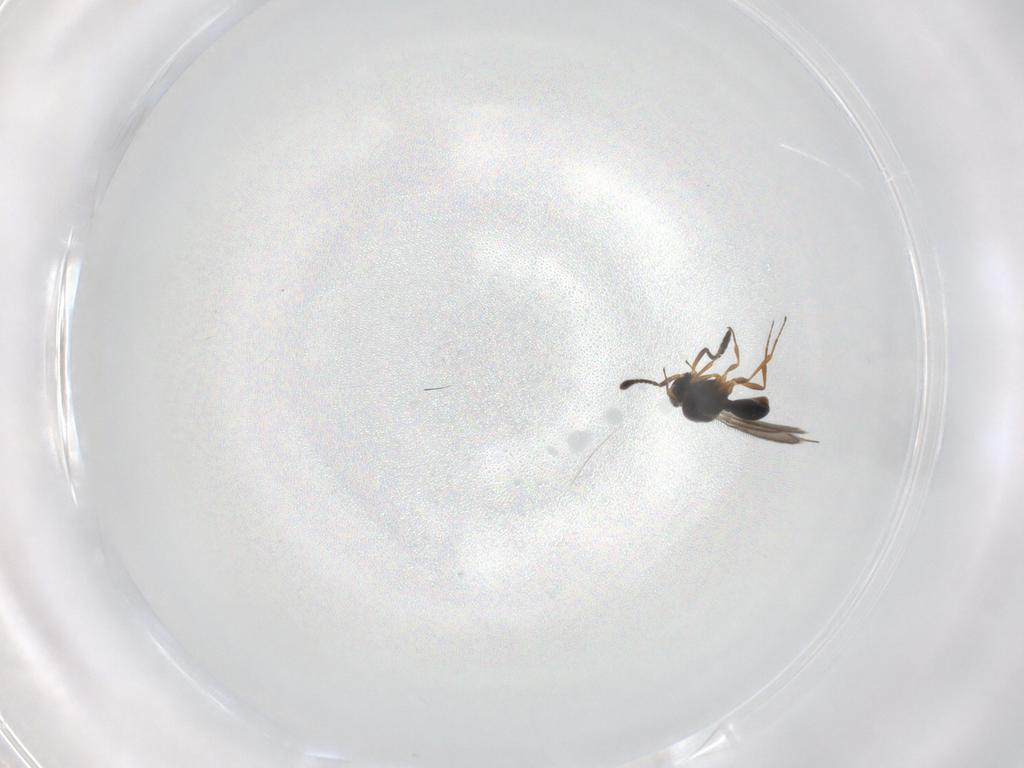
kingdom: Animalia
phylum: Arthropoda
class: Insecta
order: Hymenoptera
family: Scelionidae
